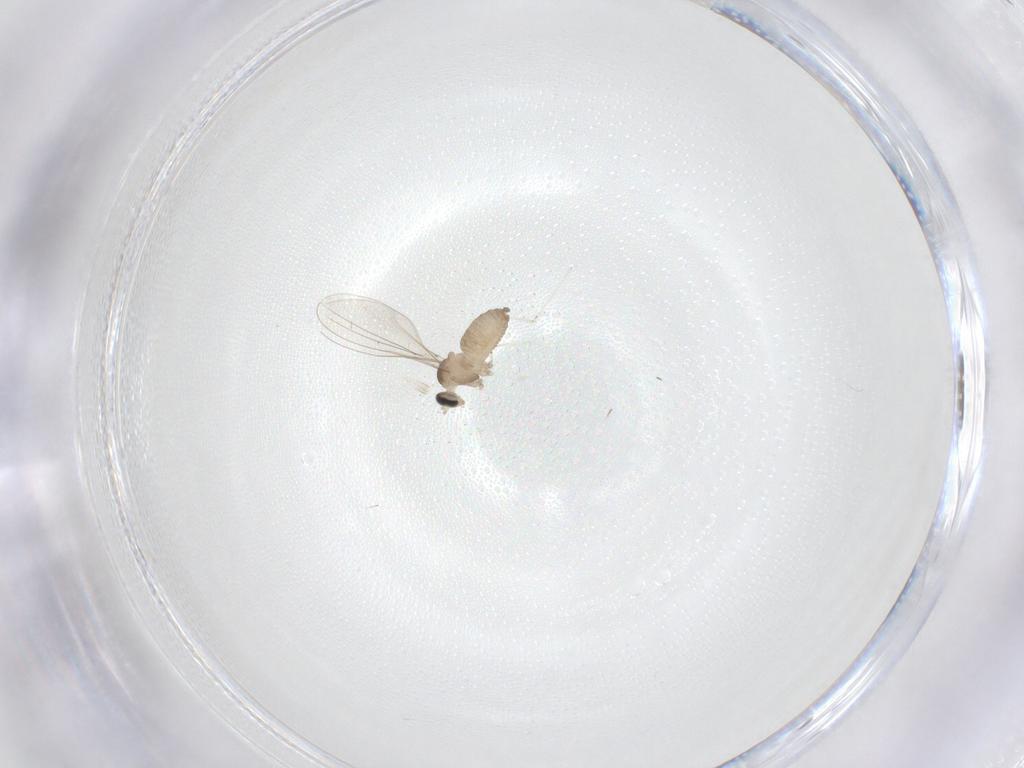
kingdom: Animalia
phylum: Arthropoda
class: Insecta
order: Diptera
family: Cecidomyiidae
